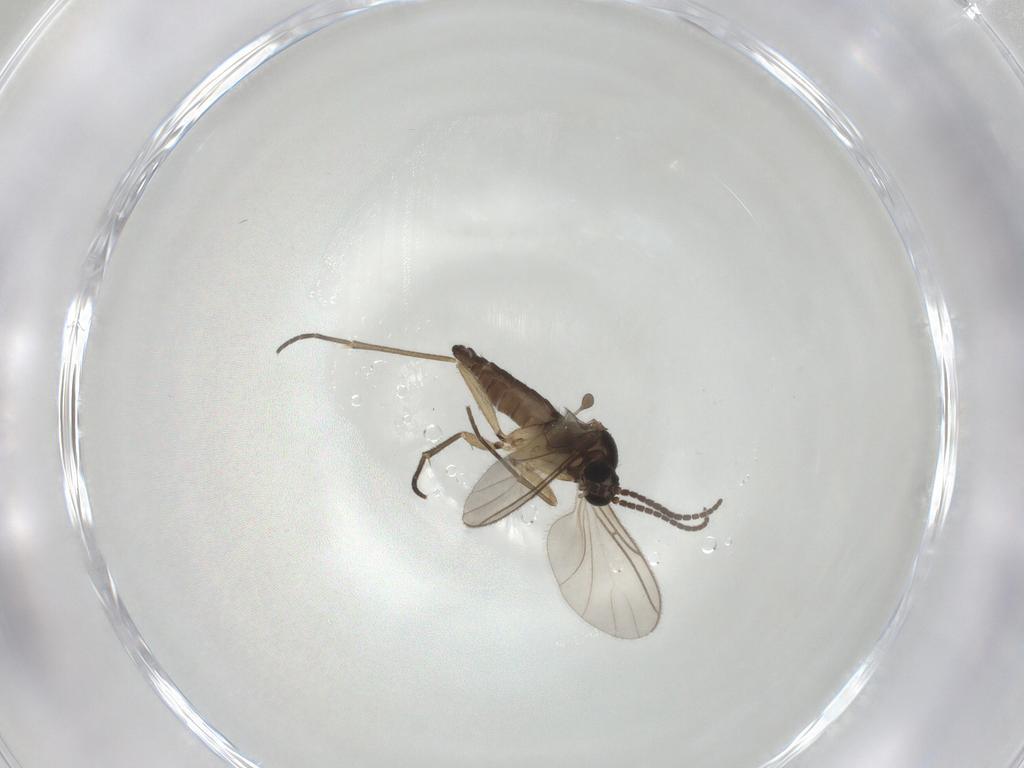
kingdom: Animalia
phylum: Arthropoda
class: Insecta
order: Diptera
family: Sciaridae
